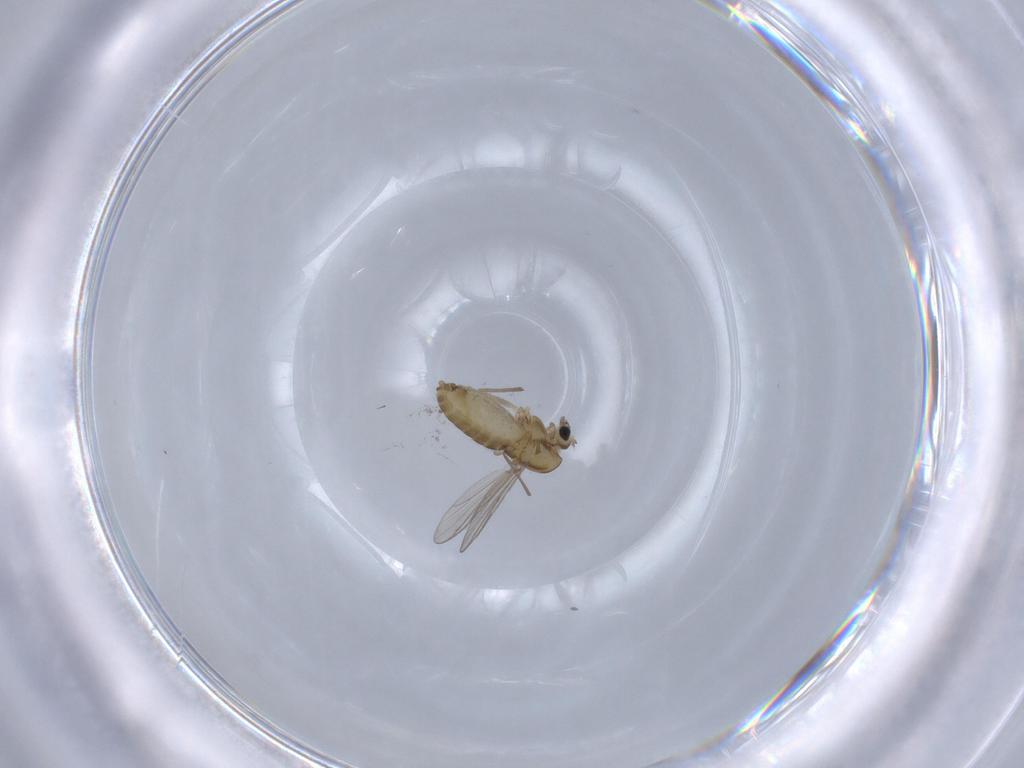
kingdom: Animalia
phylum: Arthropoda
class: Insecta
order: Diptera
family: Chironomidae
